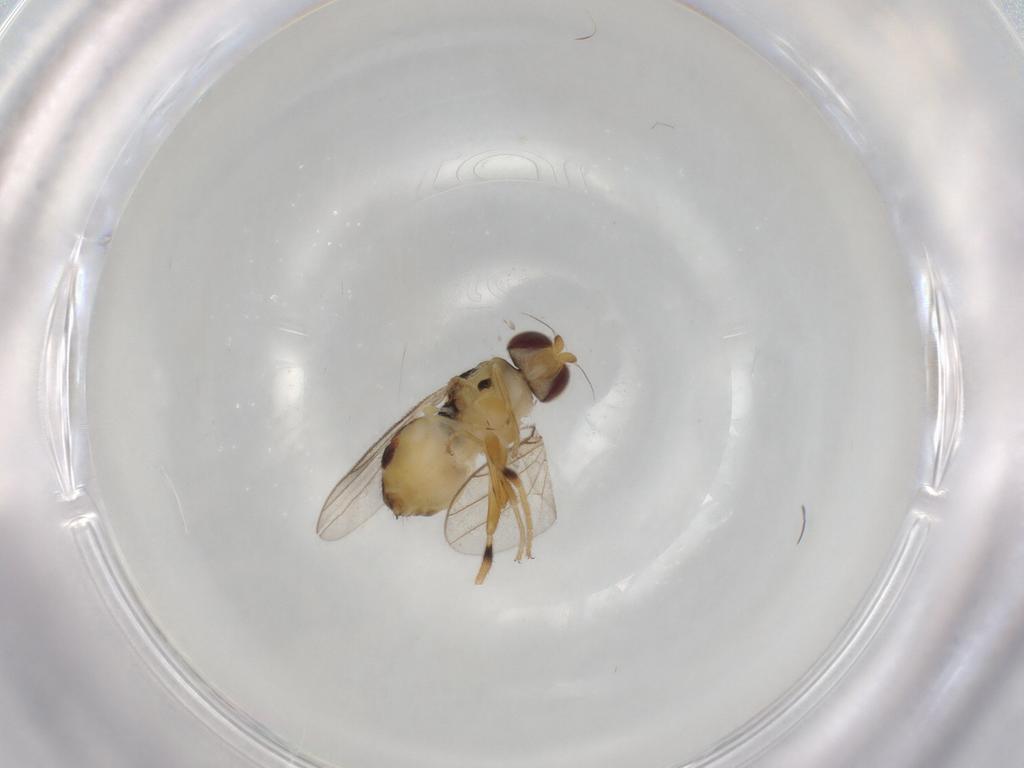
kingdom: Animalia
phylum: Arthropoda
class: Insecta
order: Diptera
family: Chloropidae
